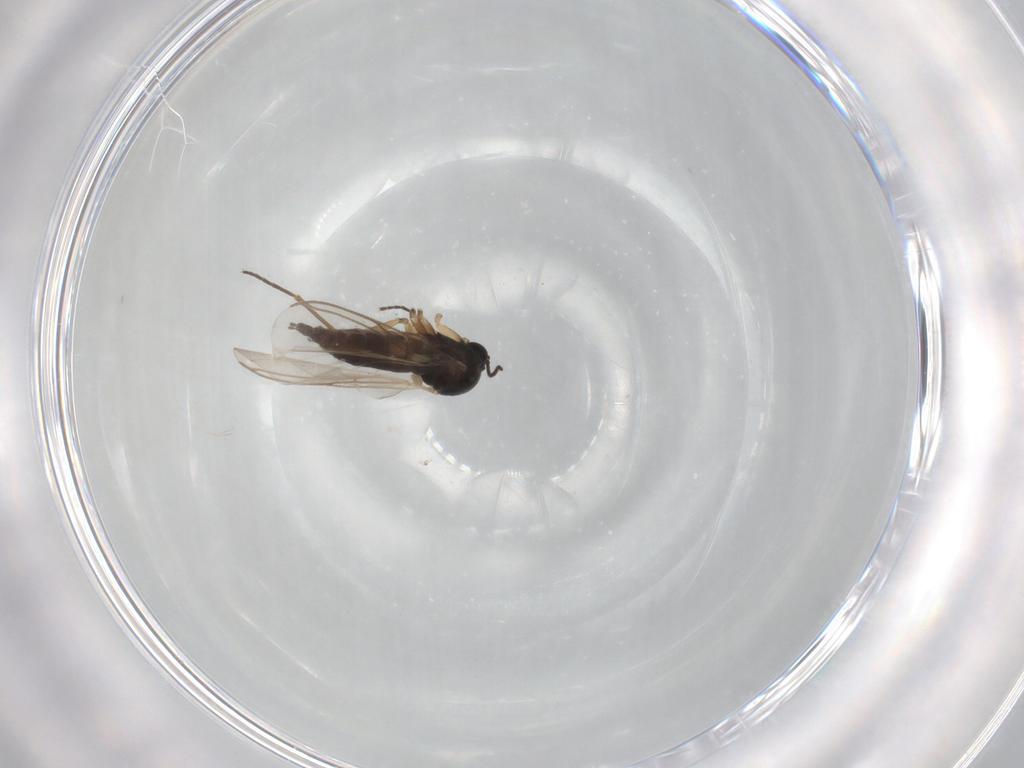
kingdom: Animalia
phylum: Arthropoda
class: Insecta
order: Diptera
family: Sciaridae
